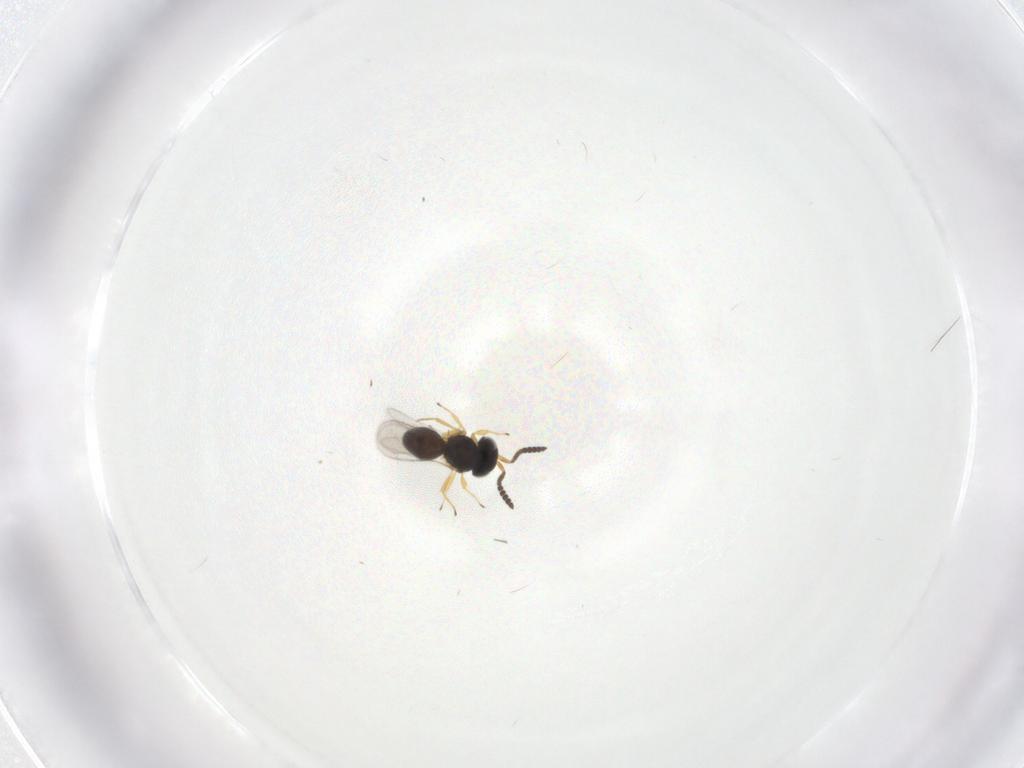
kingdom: Animalia
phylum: Arthropoda
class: Insecta
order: Hymenoptera
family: Scelionidae
